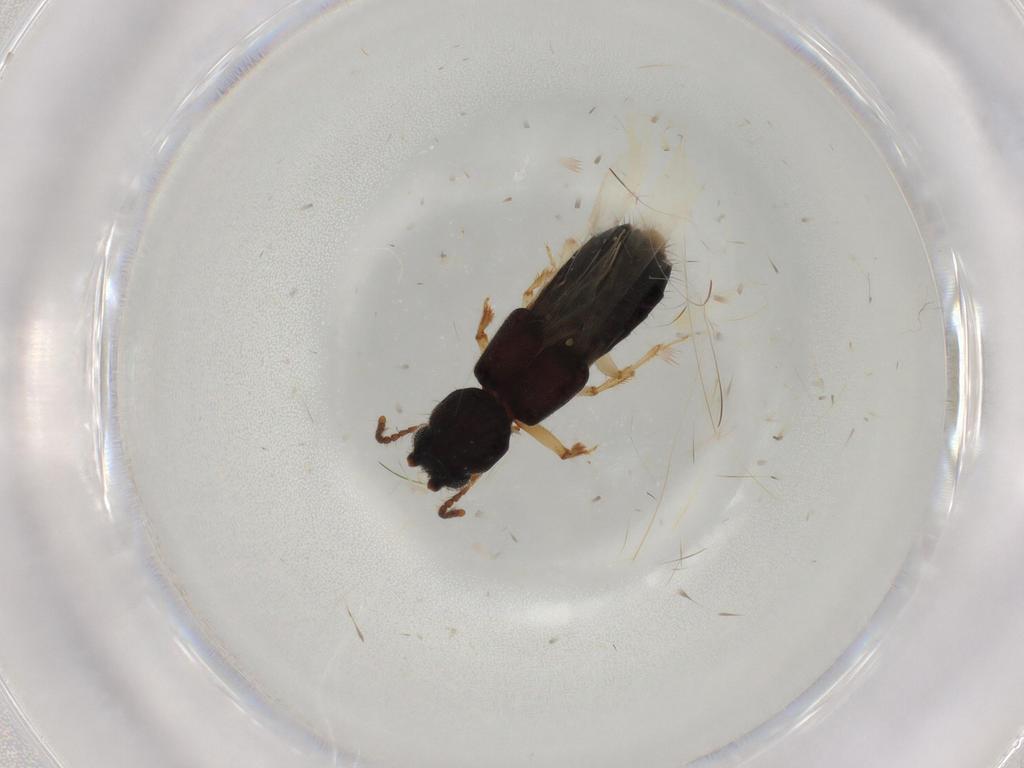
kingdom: Animalia
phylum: Arthropoda
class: Insecta
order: Coleoptera
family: Staphylinidae
